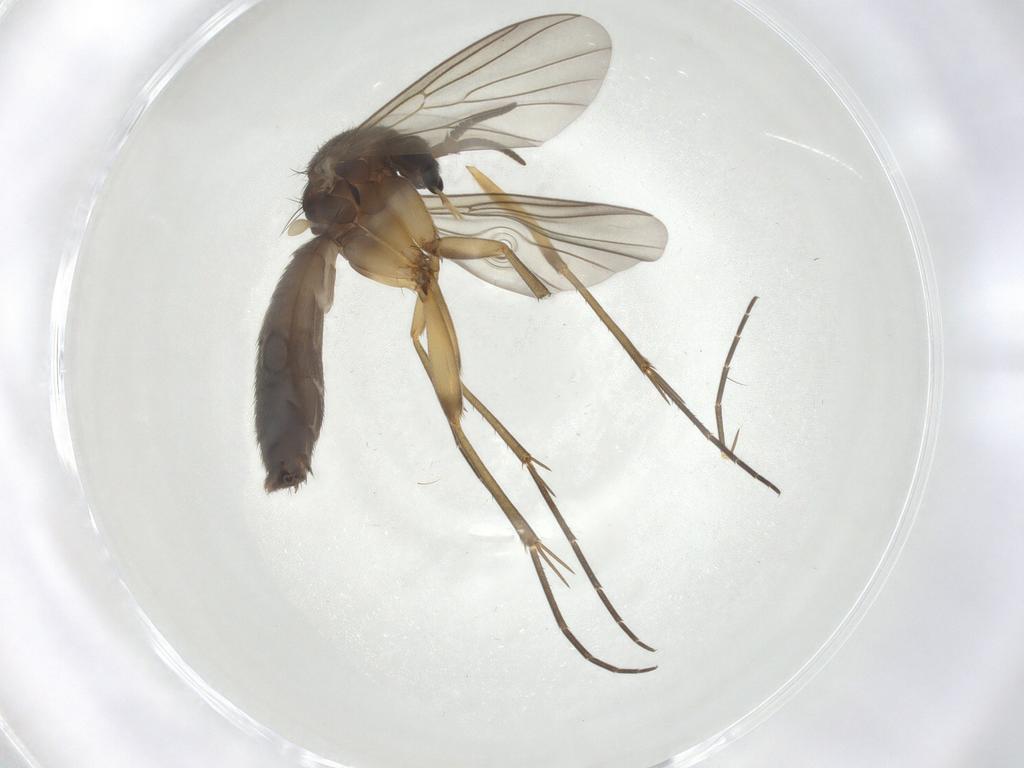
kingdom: Animalia
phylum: Arthropoda
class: Insecta
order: Diptera
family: Mycetophilidae
